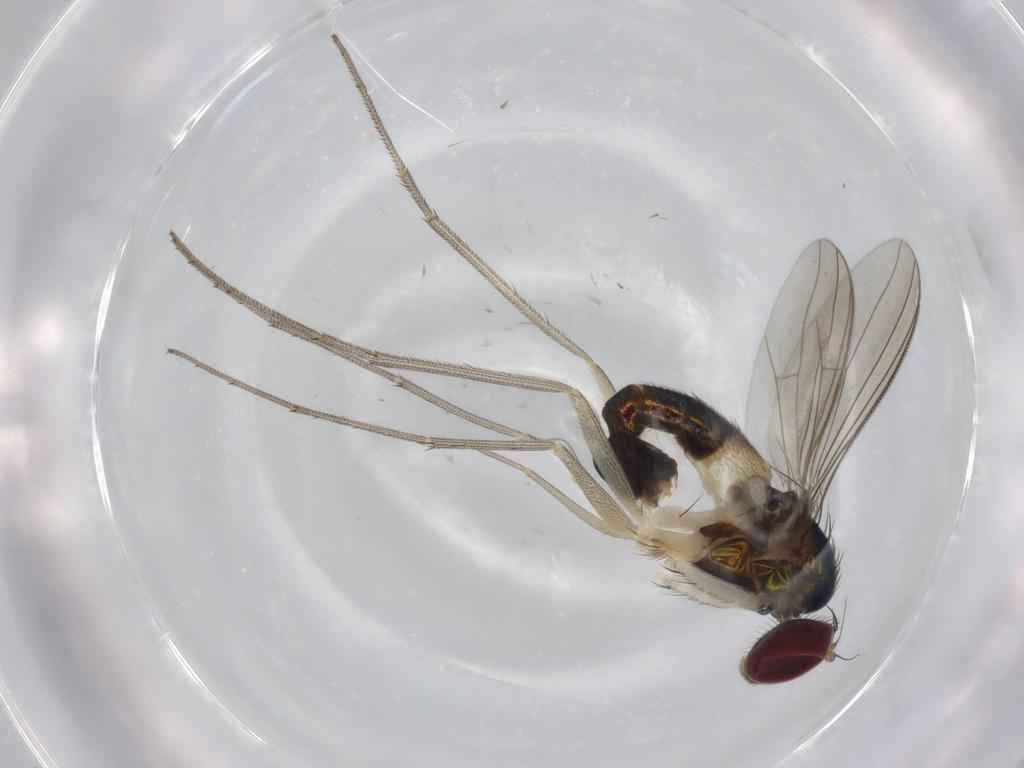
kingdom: Animalia
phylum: Arthropoda
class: Insecta
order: Diptera
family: Dolichopodidae
